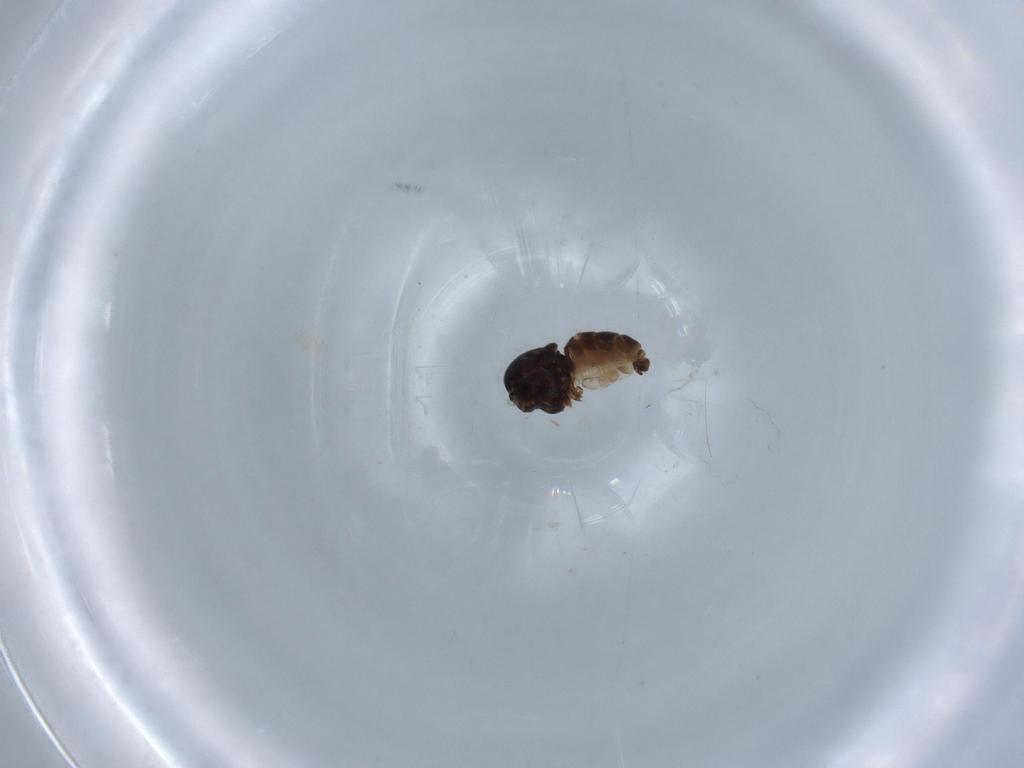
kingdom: Animalia
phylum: Arthropoda
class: Insecta
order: Diptera
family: Hybotidae
